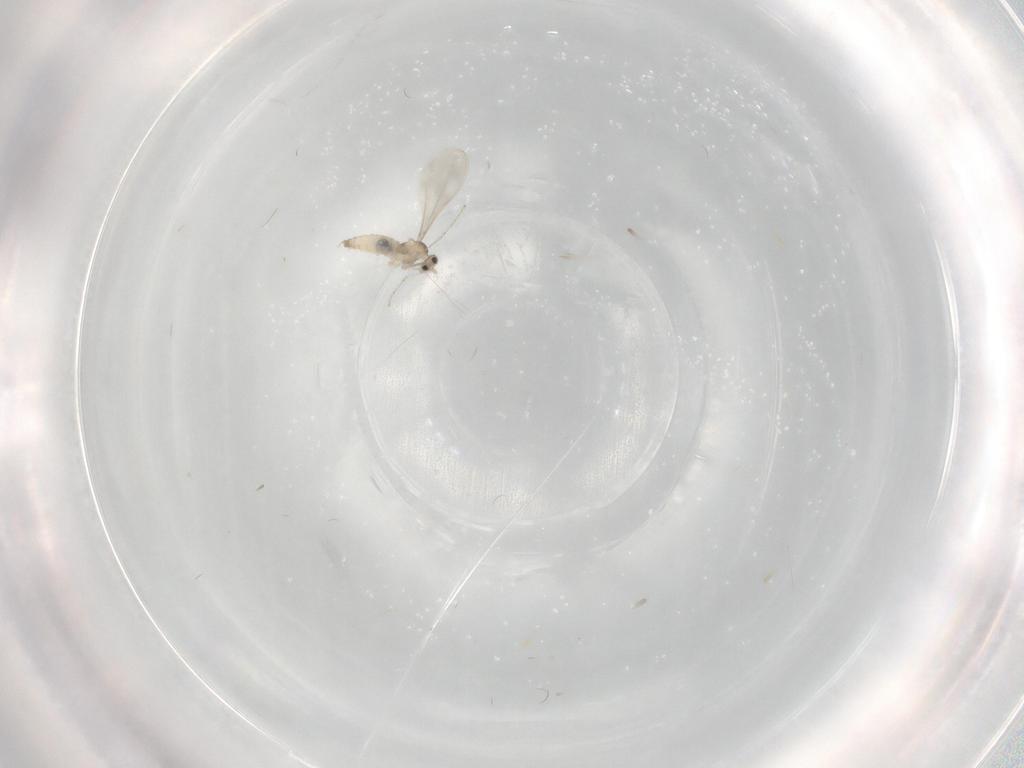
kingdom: Animalia
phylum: Arthropoda
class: Insecta
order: Diptera
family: Cecidomyiidae
